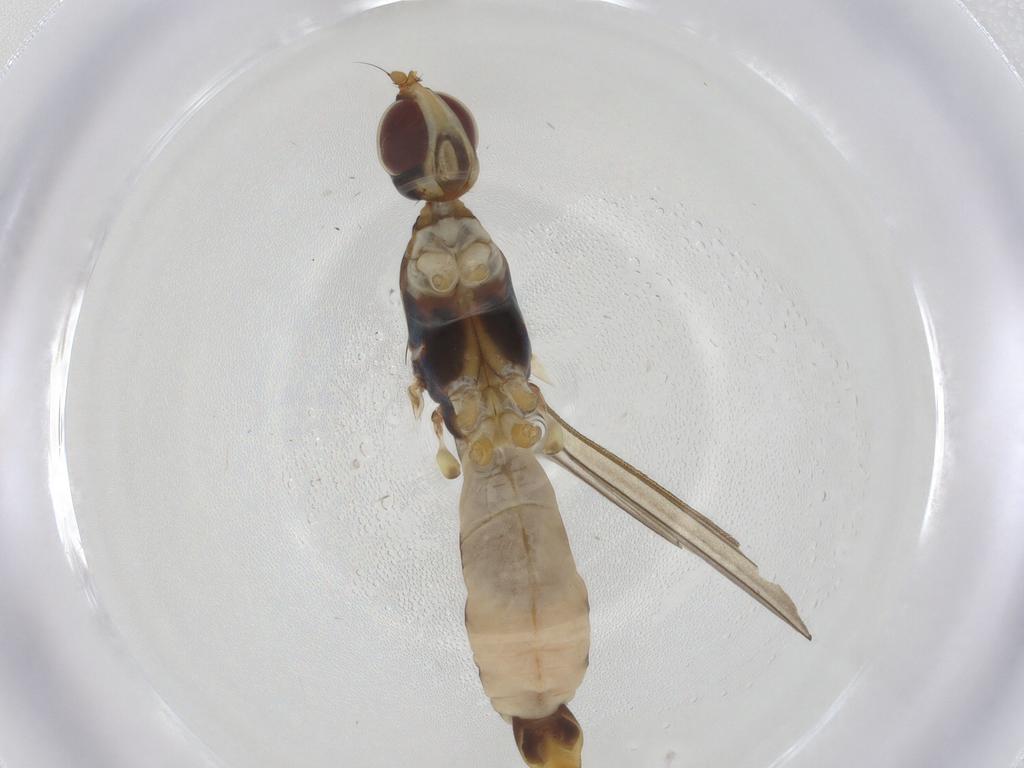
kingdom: Animalia
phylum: Arthropoda
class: Insecta
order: Diptera
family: Micropezidae
